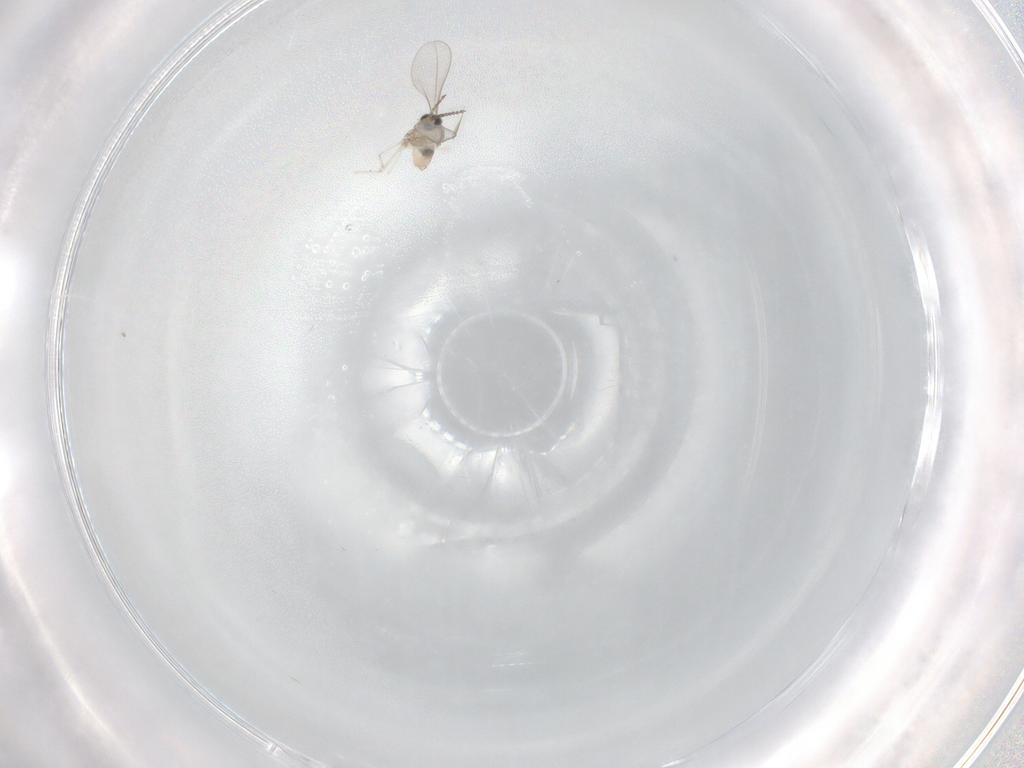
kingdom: Animalia
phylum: Arthropoda
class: Insecta
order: Diptera
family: Cecidomyiidae
